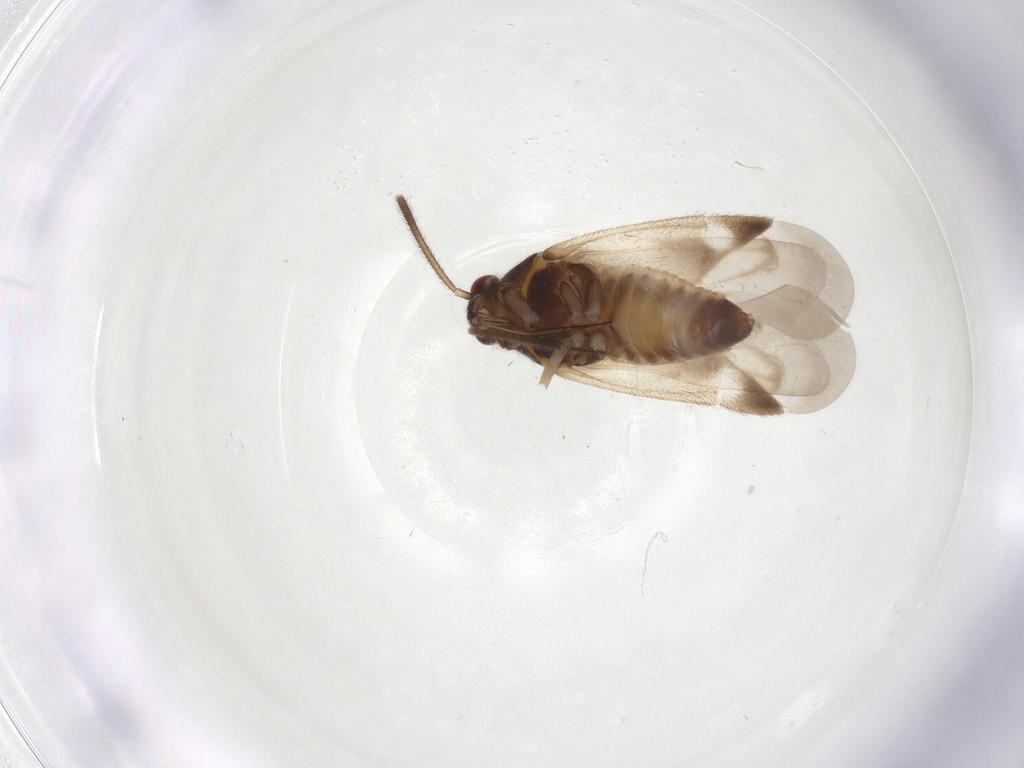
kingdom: Animalia
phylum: Arthropoda
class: Insecta
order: Hemiptera
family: Miridae
